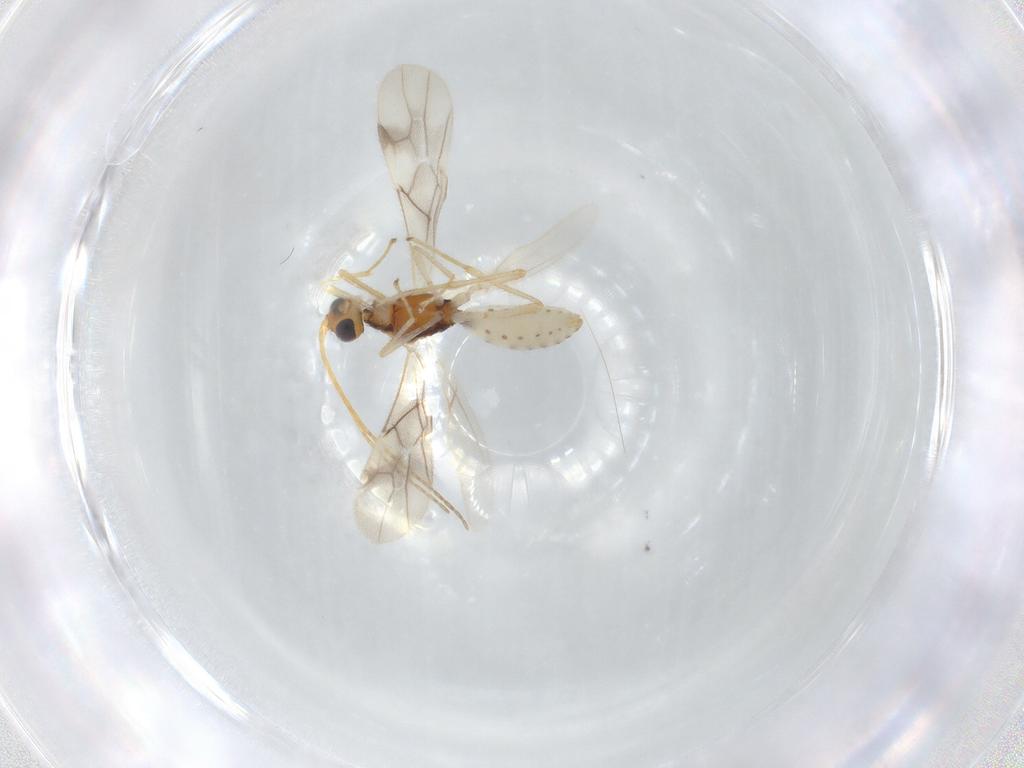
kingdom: Animalia
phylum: Arthropoda
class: Insecta
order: Hymenoptera
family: Braconidae
